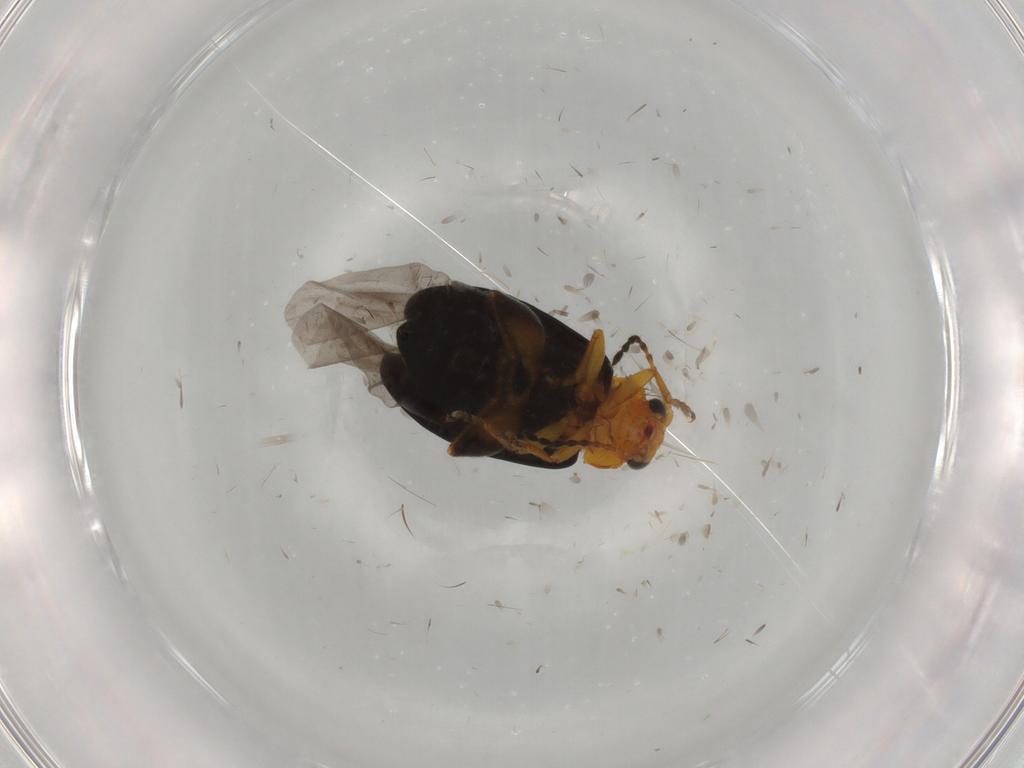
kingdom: Animalia
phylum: Arthropoda
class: Insecta
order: Coleoptera
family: Chrysomelidae
